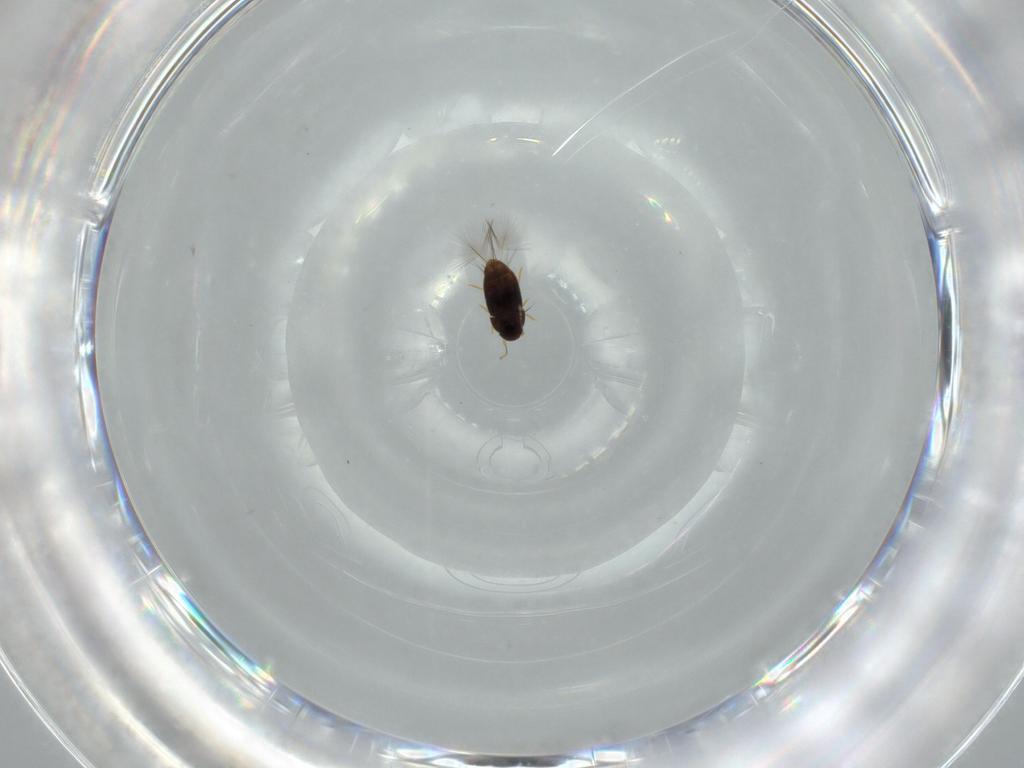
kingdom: Animalia
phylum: Arthropoda
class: Insecta
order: Coleoptera
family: Ptiliidae
